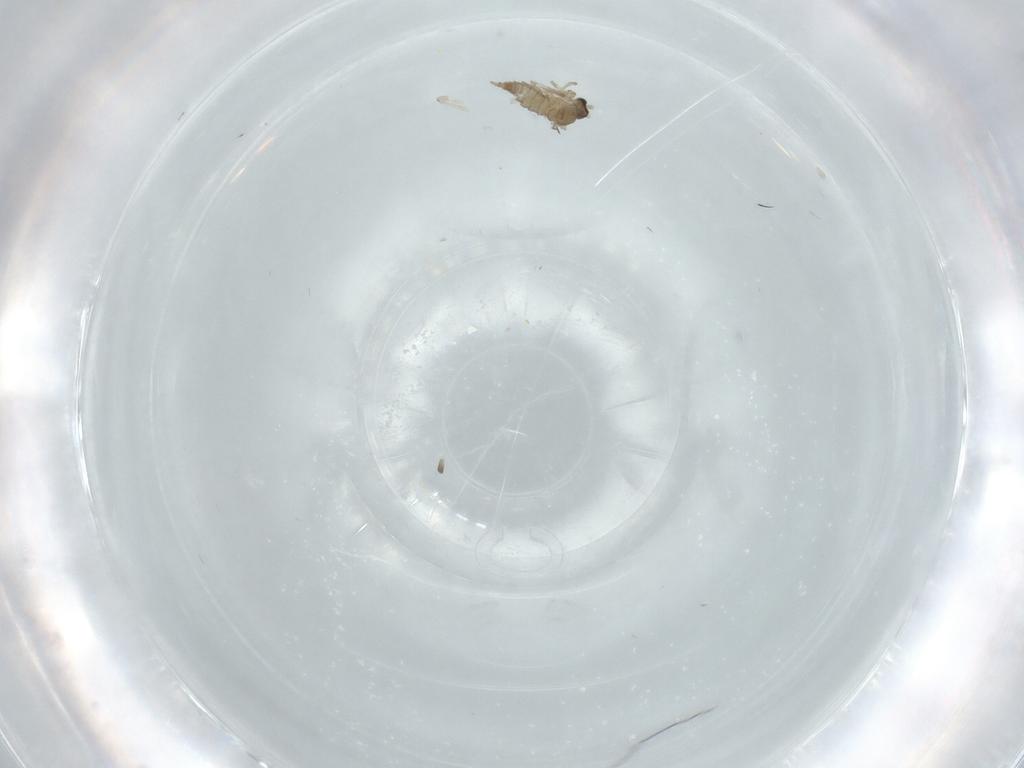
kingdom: Animalia
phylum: Arthropoda
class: Insecta
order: Diptera
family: Cecidomyiidae
